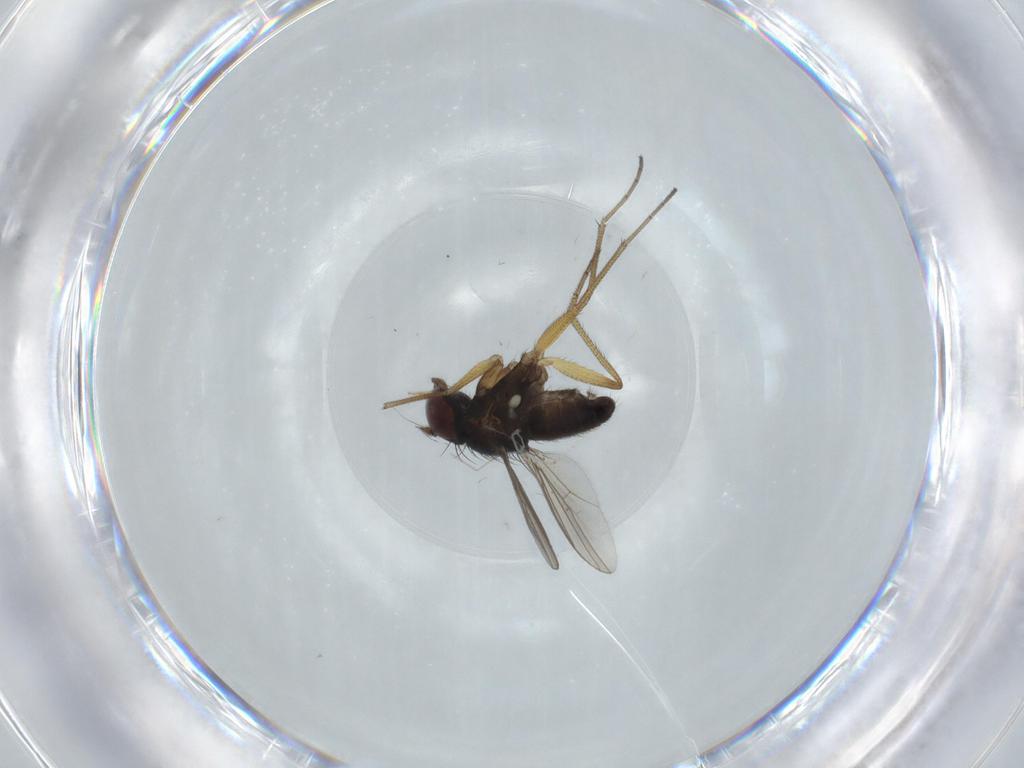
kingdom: Animalia
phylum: Arthropoda
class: Insecta
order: Diptera
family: Dolichopodidae
